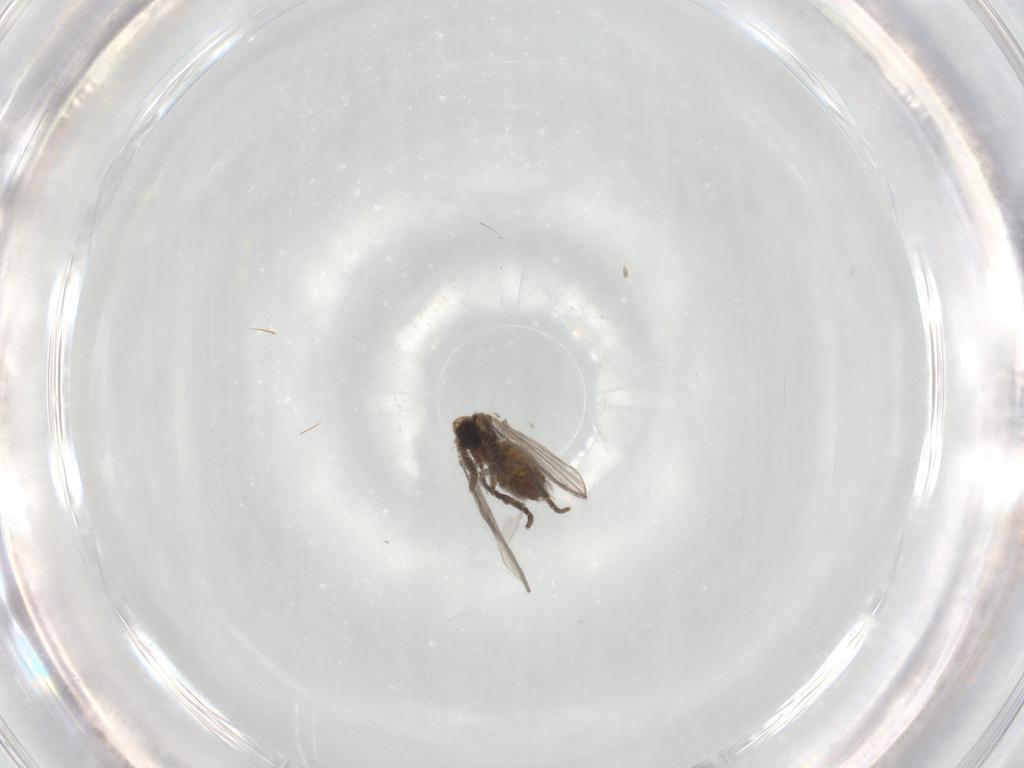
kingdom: Animalia
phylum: Arthropoda
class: Insecta
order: Diptera
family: Psychodidae
